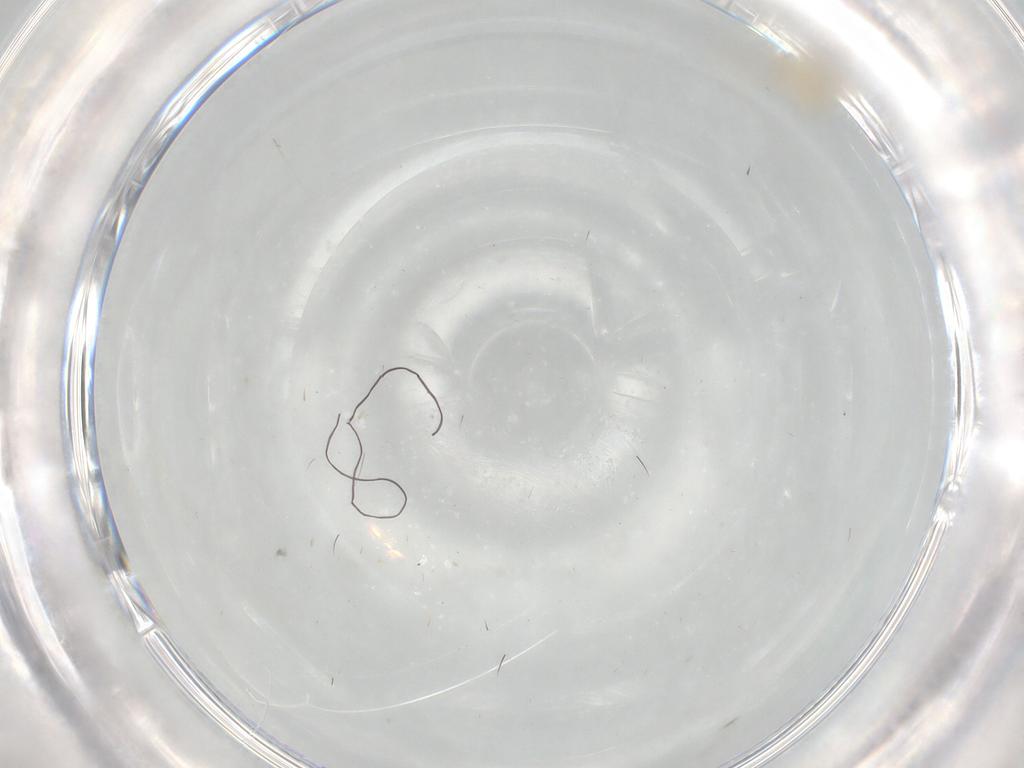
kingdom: Animalia
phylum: Arthropoda
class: Insecta
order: Diptera
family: Cecidomyiidae
